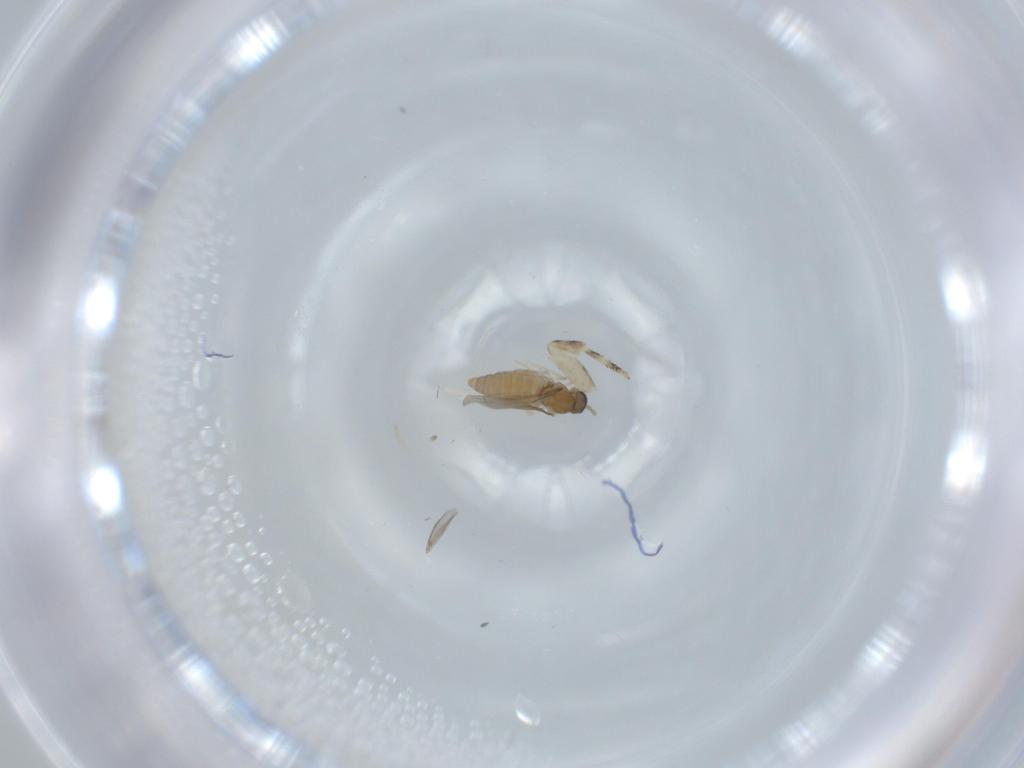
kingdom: Animalia
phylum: Arthropoda
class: Insecta
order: Diptera
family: Cecidomyiidae
